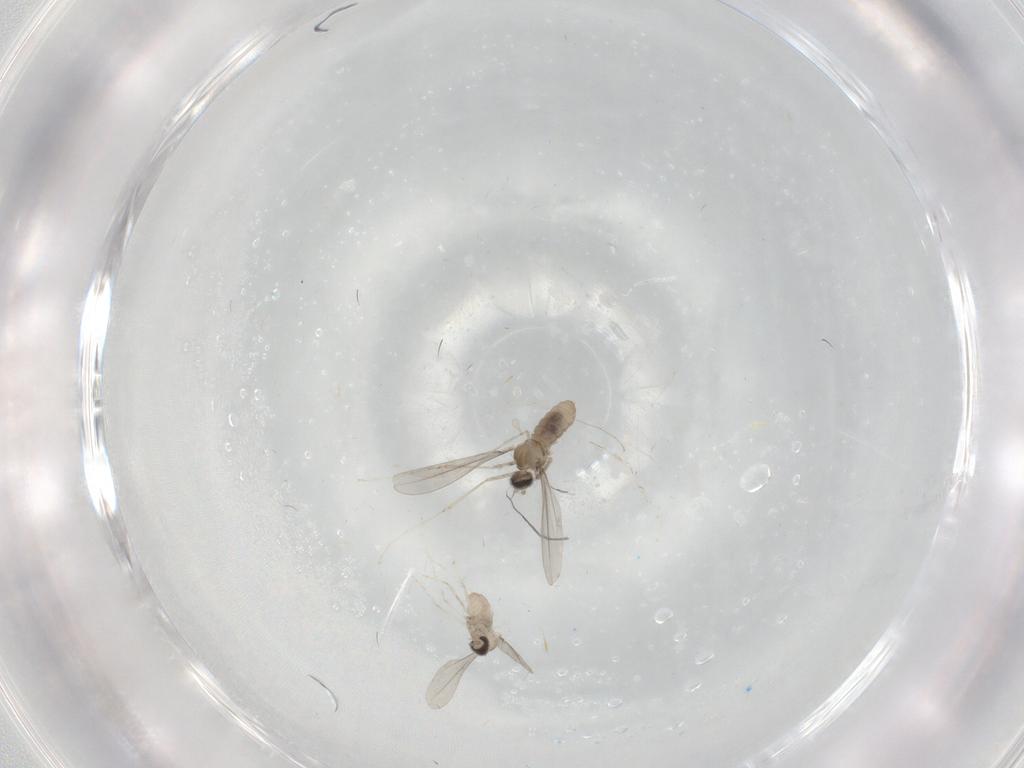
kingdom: Animalia
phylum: Arthropoda
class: Insecta
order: Diptera
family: Cecidomyiidae
